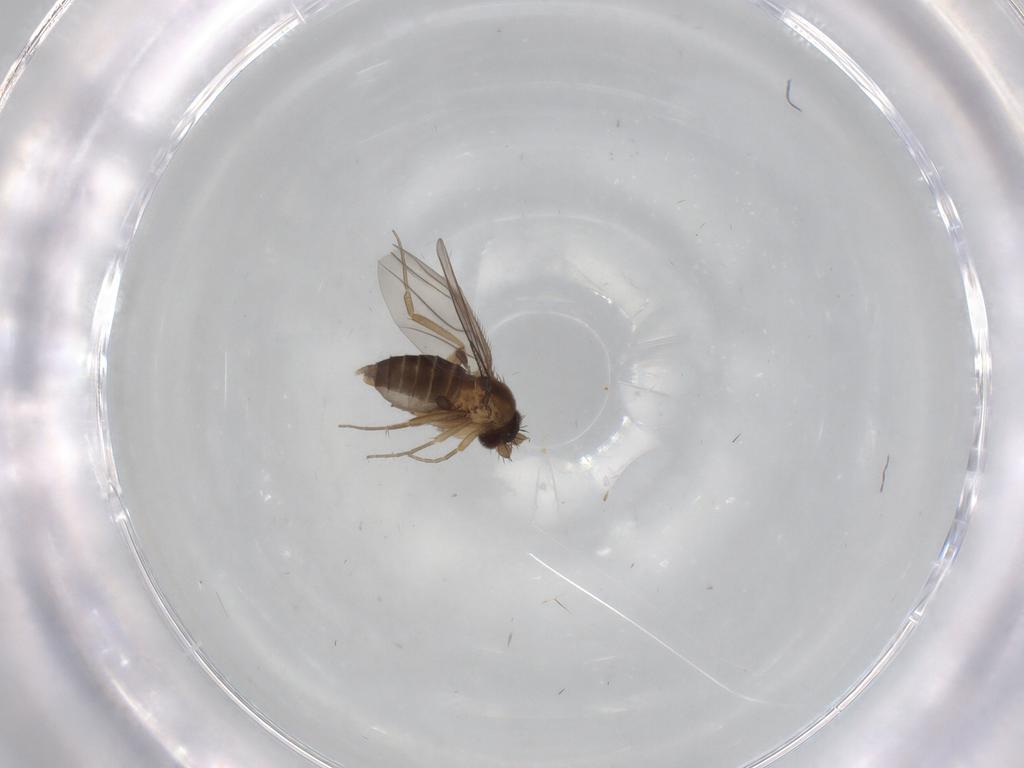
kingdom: Animalia
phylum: Arthropoda
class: Insecta
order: Diptera
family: Phoridae
